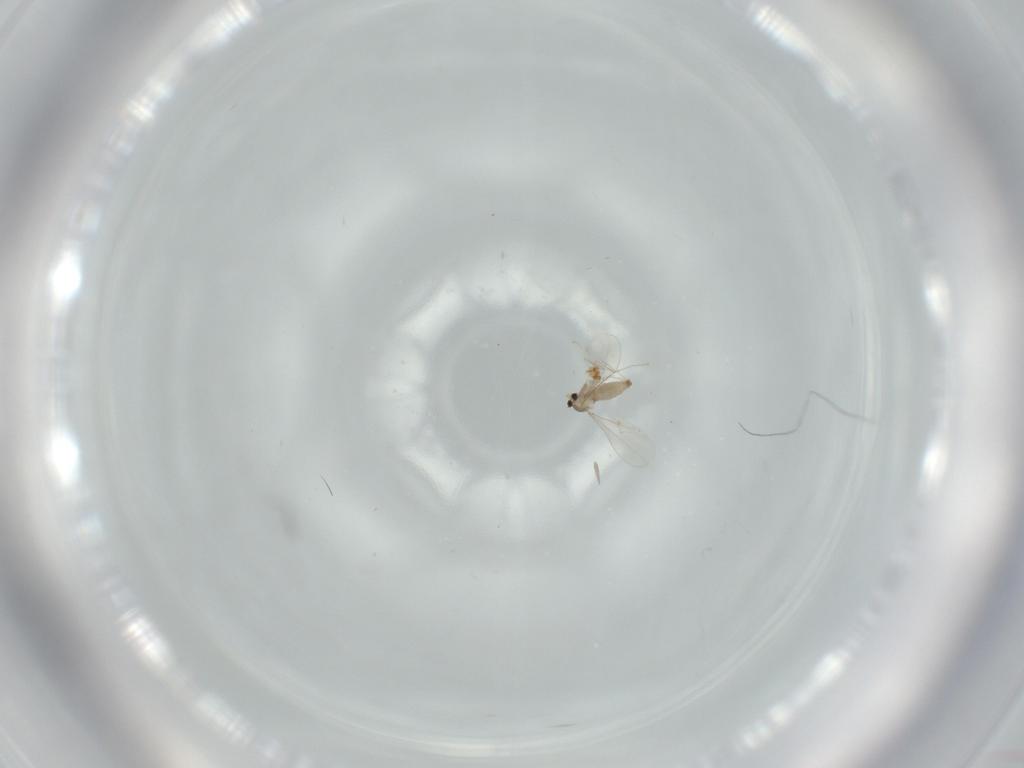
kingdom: Animalia
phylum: Arthropoda
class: Insecta
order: Diptera
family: Cecidomyiidae
